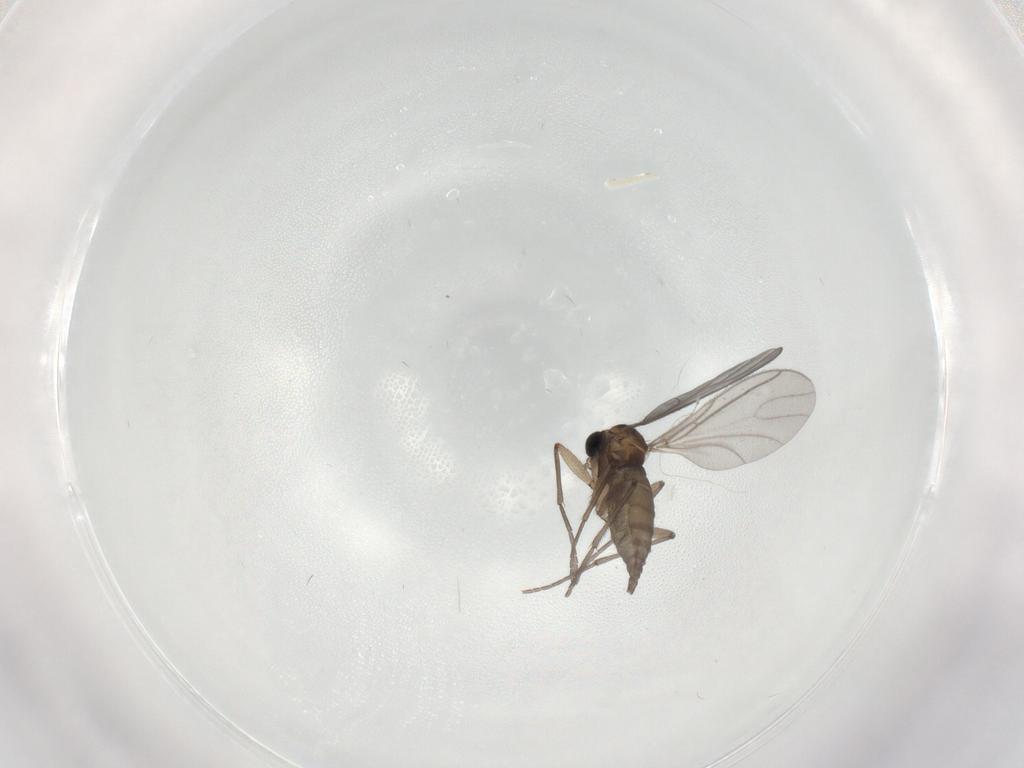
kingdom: Animalia
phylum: Arthropoda
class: Insecta
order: Diptera
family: Sciaridae
